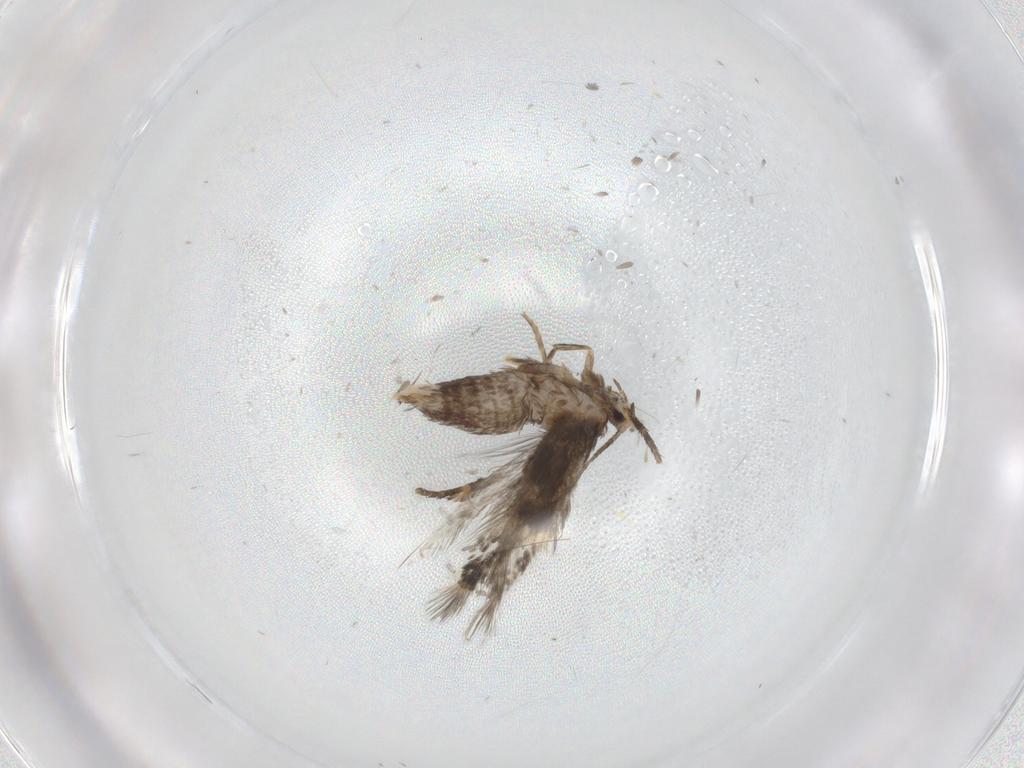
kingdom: Animalia
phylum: Arthropoda
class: Insecta
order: Lepidoptera
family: Nepticulidae
